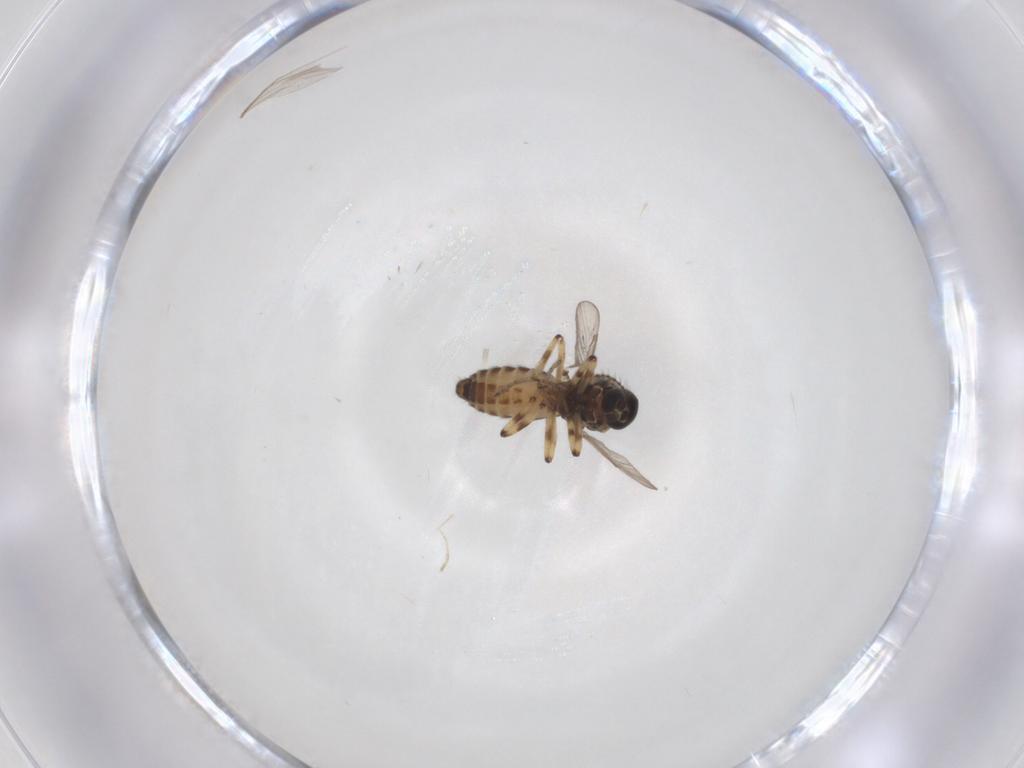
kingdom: Animalia
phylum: Arthropoda
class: Insecta
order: Diptera
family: Ceratopogonidae
